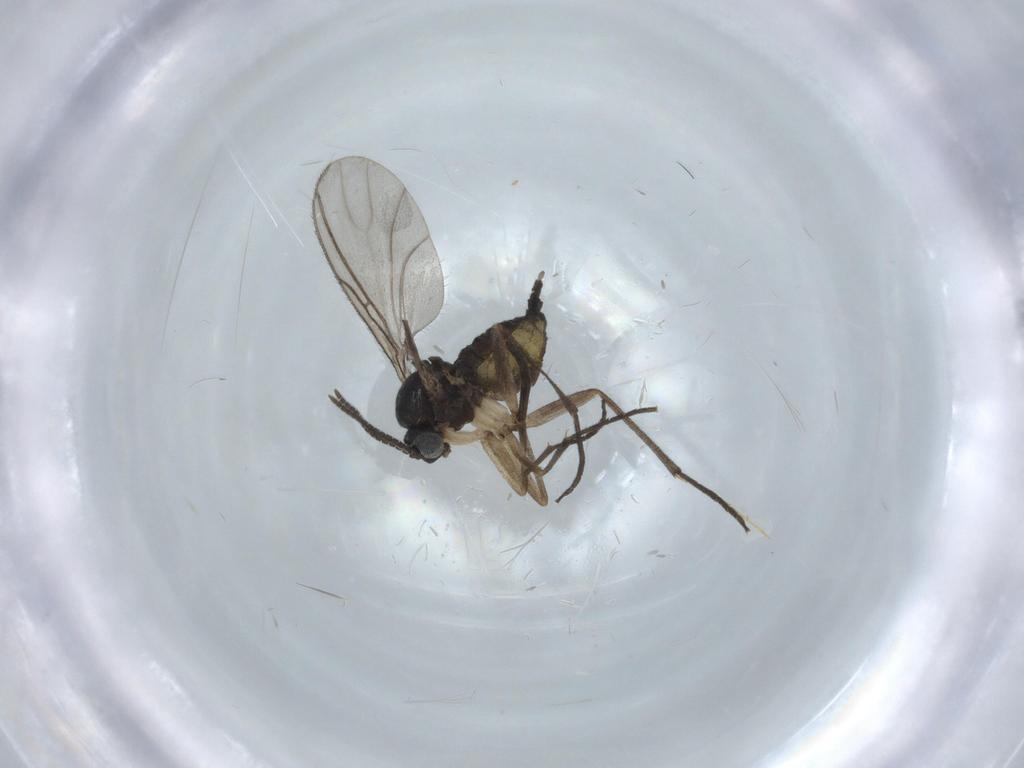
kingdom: Animalia
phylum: Arthropoda
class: Insecta
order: Diptera
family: Sciaridae
